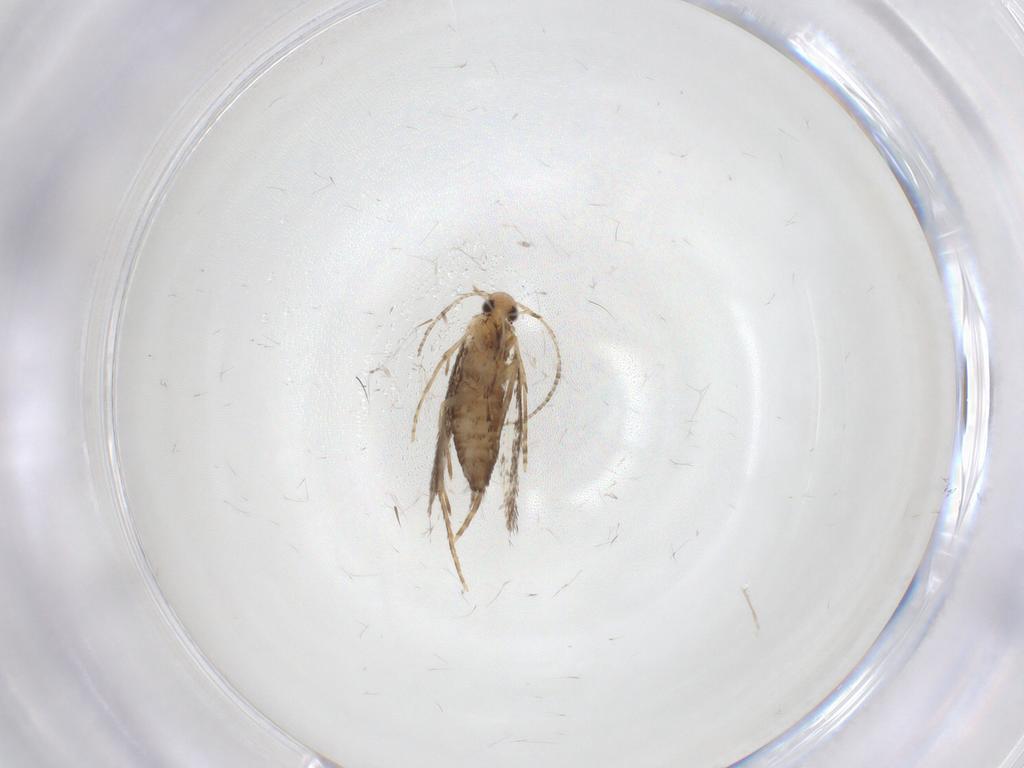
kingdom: Animalia
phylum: Arthropoda
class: Insecta
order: Lepidoptera
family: Gracillariidae
